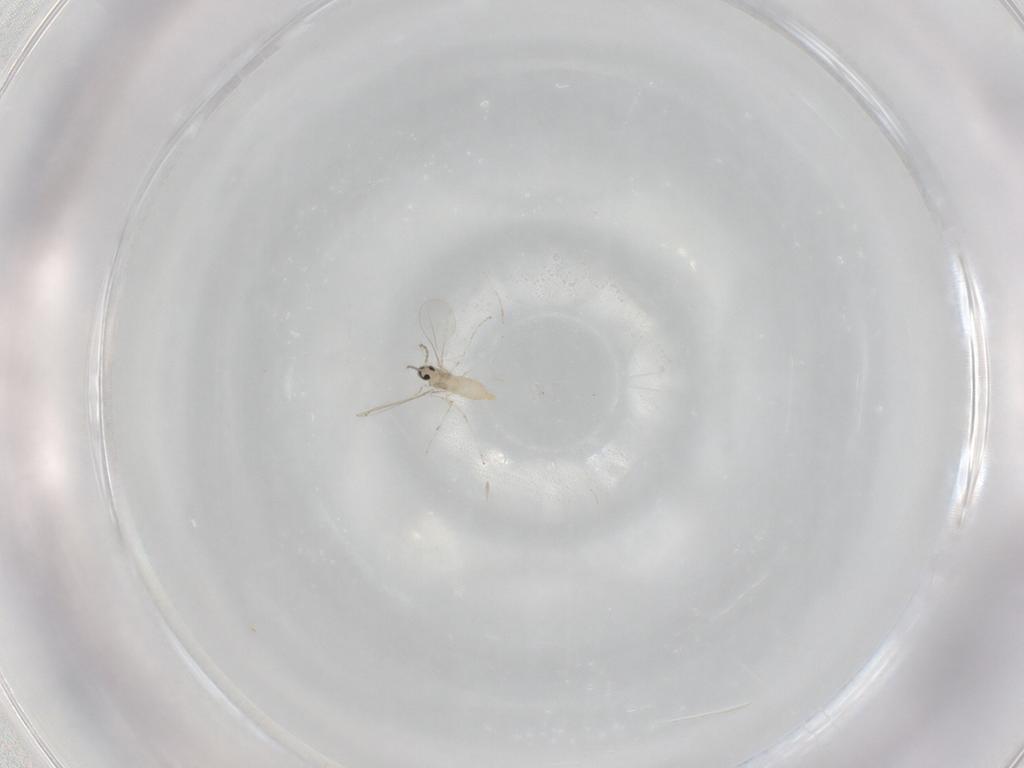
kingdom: Animalia
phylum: Arthropoda
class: Insecta
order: Diptera
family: Cecidomyiidae
